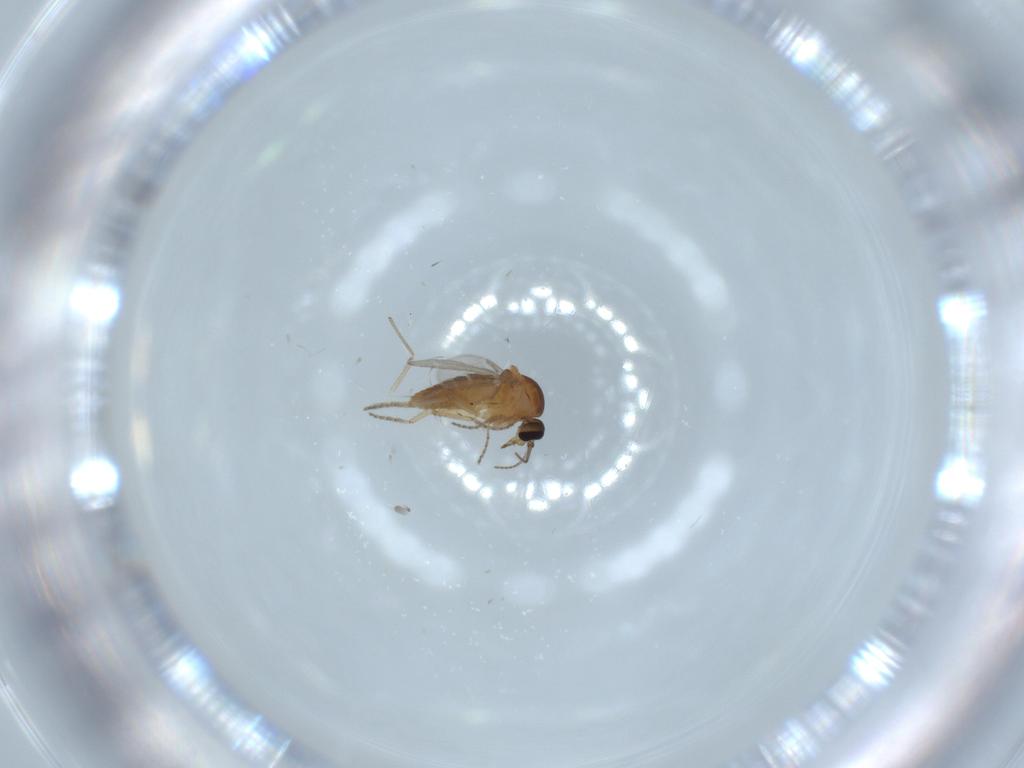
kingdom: Animalia
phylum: Arthropoda
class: Insecta
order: Diptera
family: Ceratopogonidae
